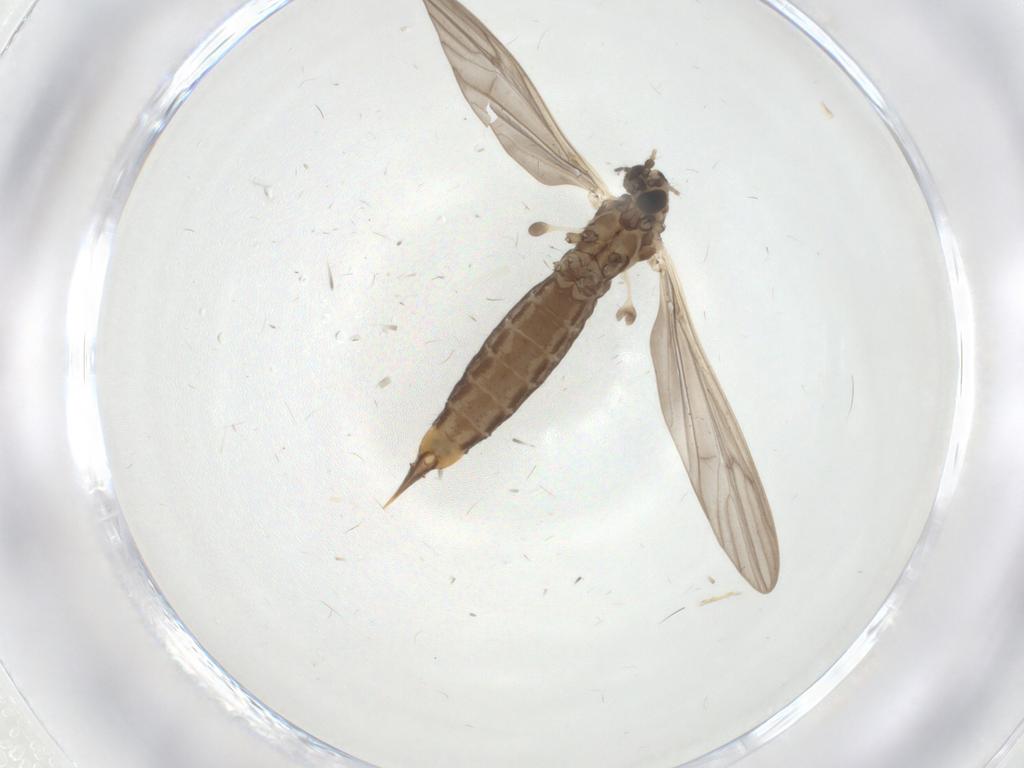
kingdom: Animalia
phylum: Arthropoda
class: Insecta
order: Diptera
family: Limoniidae
